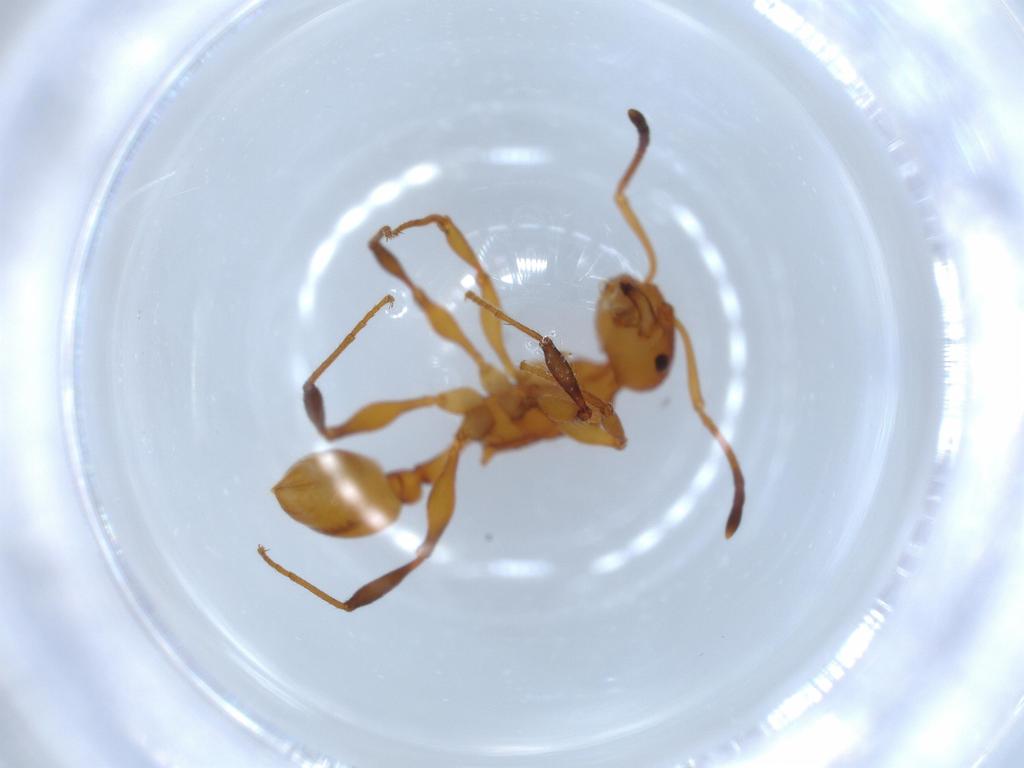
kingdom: Animalia
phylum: Arthropoda
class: Insecta
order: Hymenoptera
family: Formicidae
